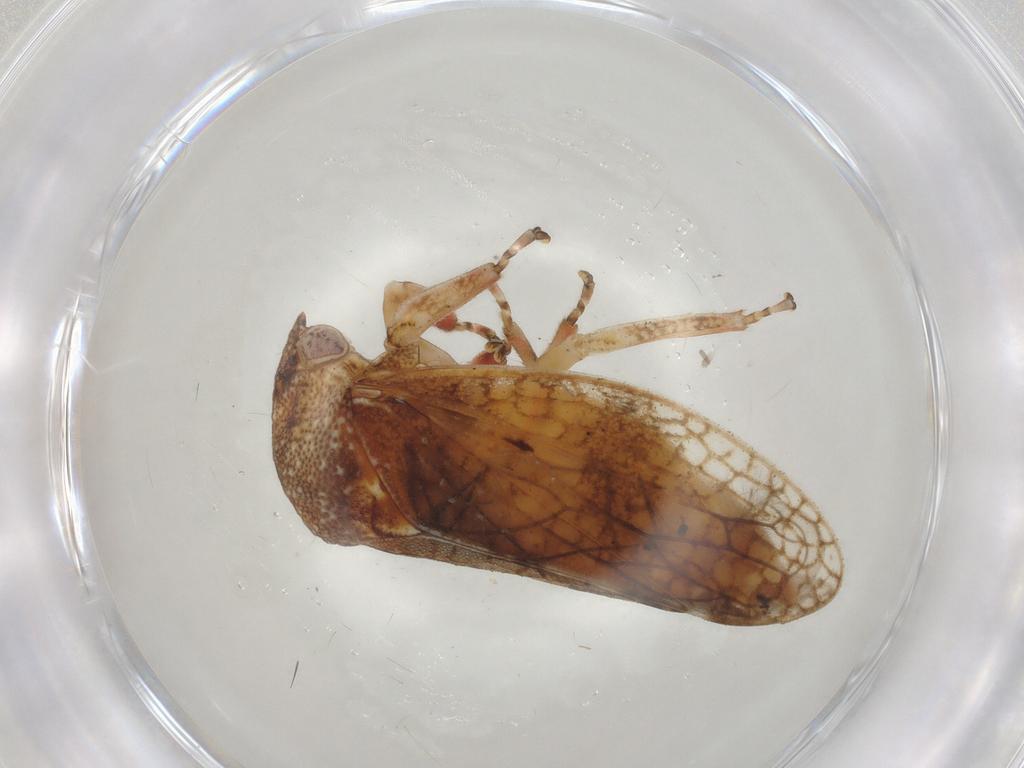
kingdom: Animalia
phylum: Arthropoda
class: Insecta
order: Hemiptera
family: Cicadellidae
